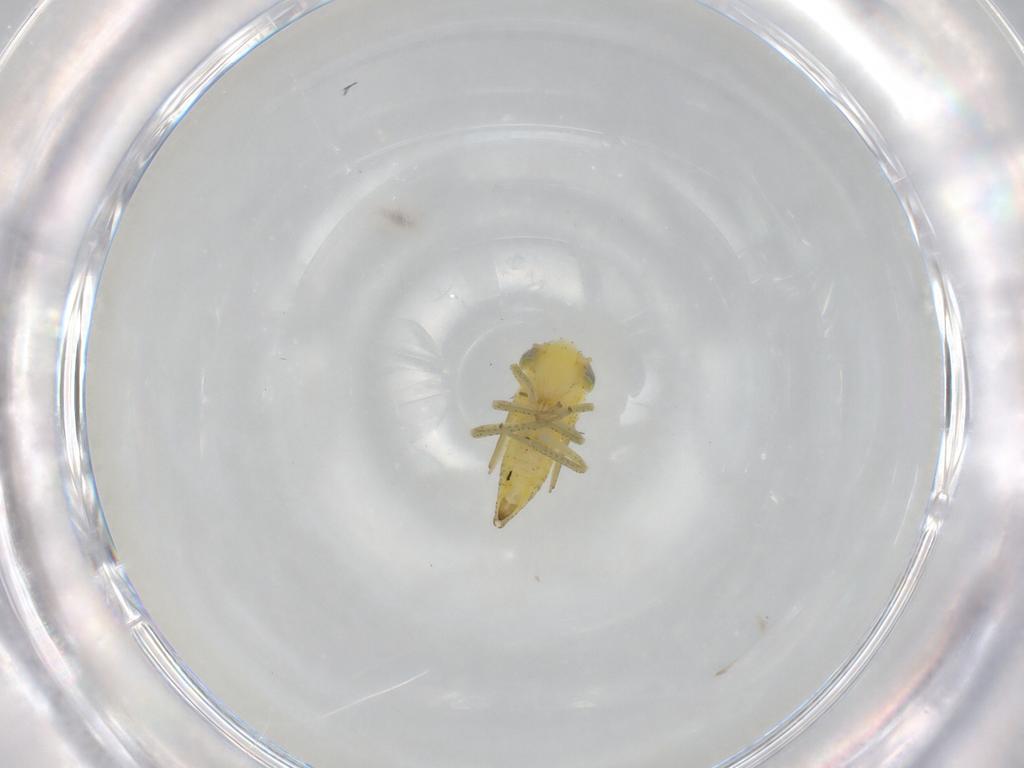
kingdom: Animalia
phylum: Arthropoda
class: Insecta
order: Hemiptera
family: Cicadellidae
